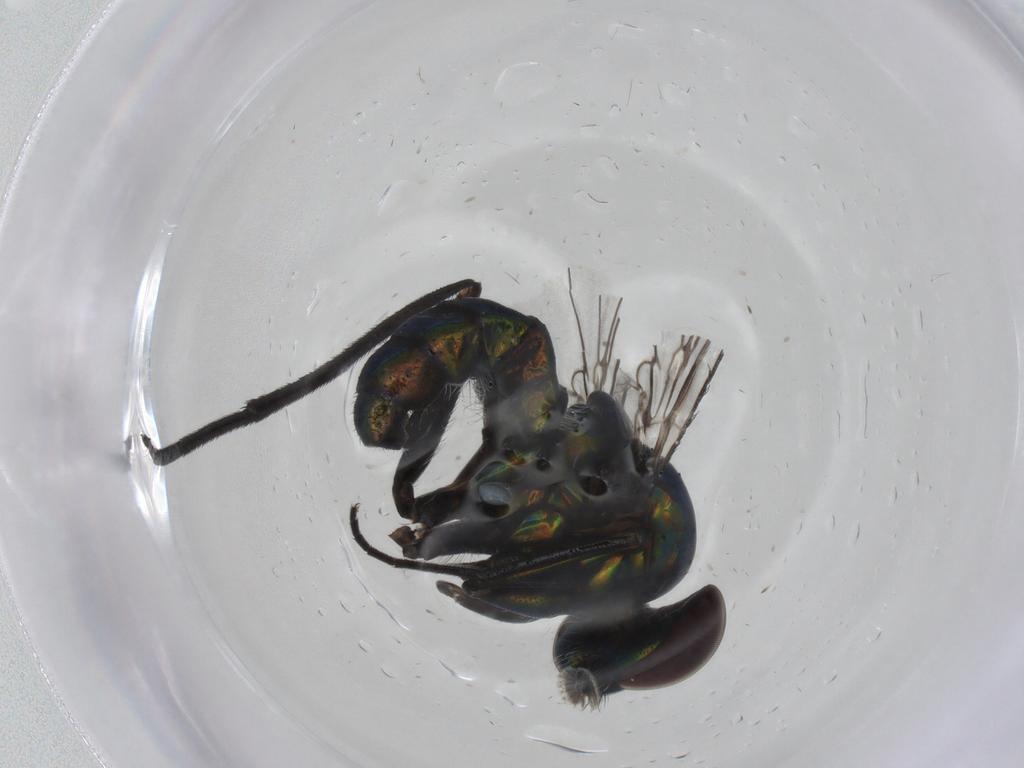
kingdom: Animalia
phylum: Arthropoda
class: Insecta
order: Diptera
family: Dolichopodidae
